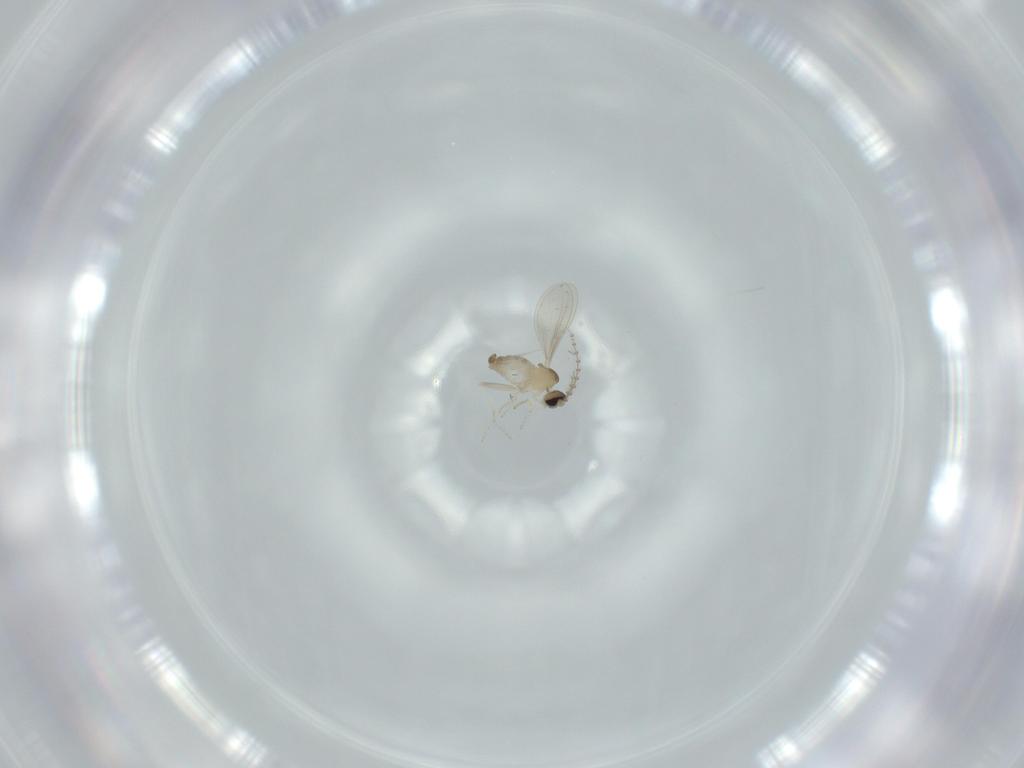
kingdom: Animalia
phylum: Arthropoda
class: Insecta
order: Diptera
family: Cecidomyiidae
